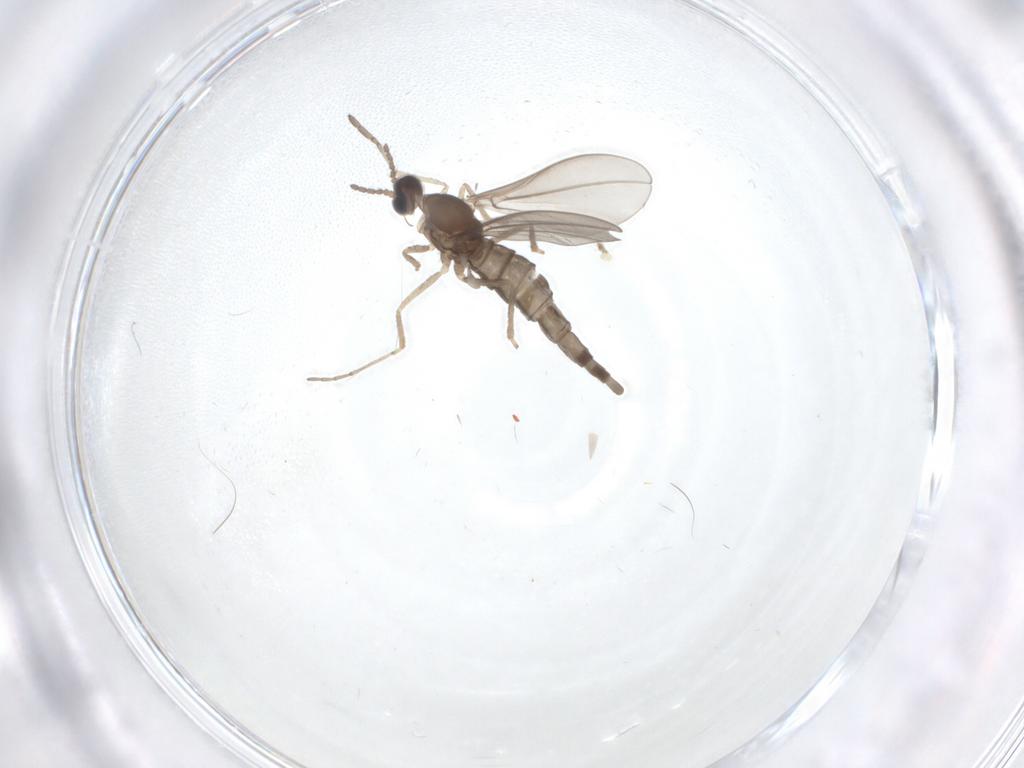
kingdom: Animalia
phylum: Arthropoda
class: Insecta
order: Diptera
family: Cecidomyiidae
